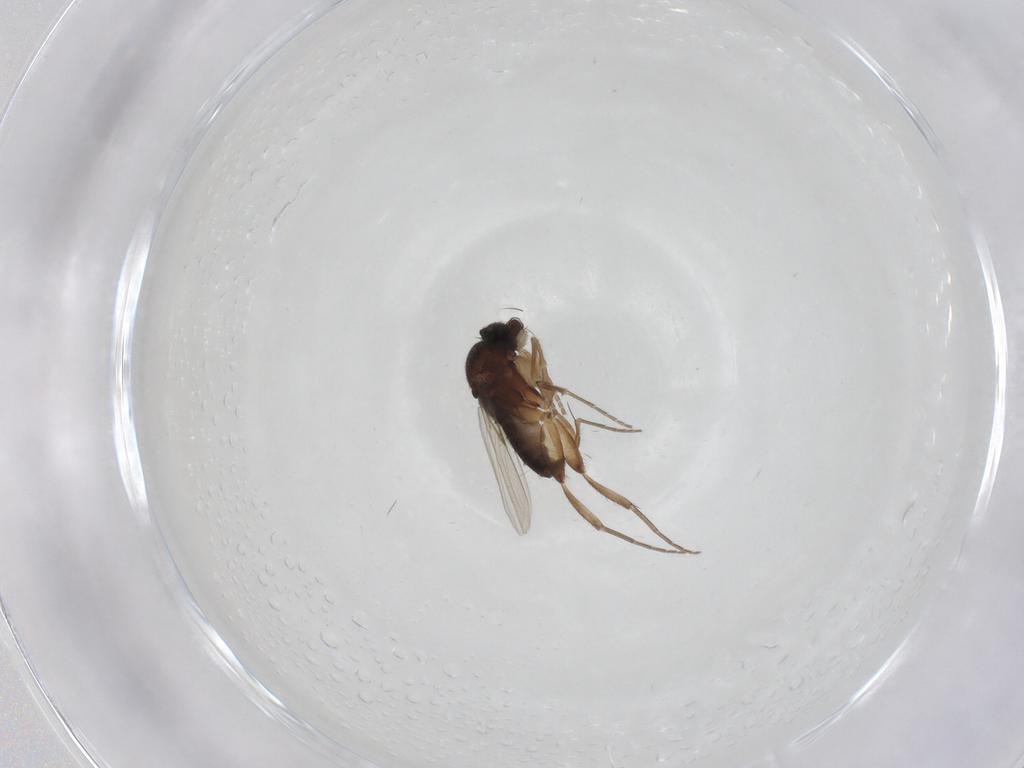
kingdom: Animalia
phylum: Arthropoda
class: Insecta
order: Diptera
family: Phoridae
